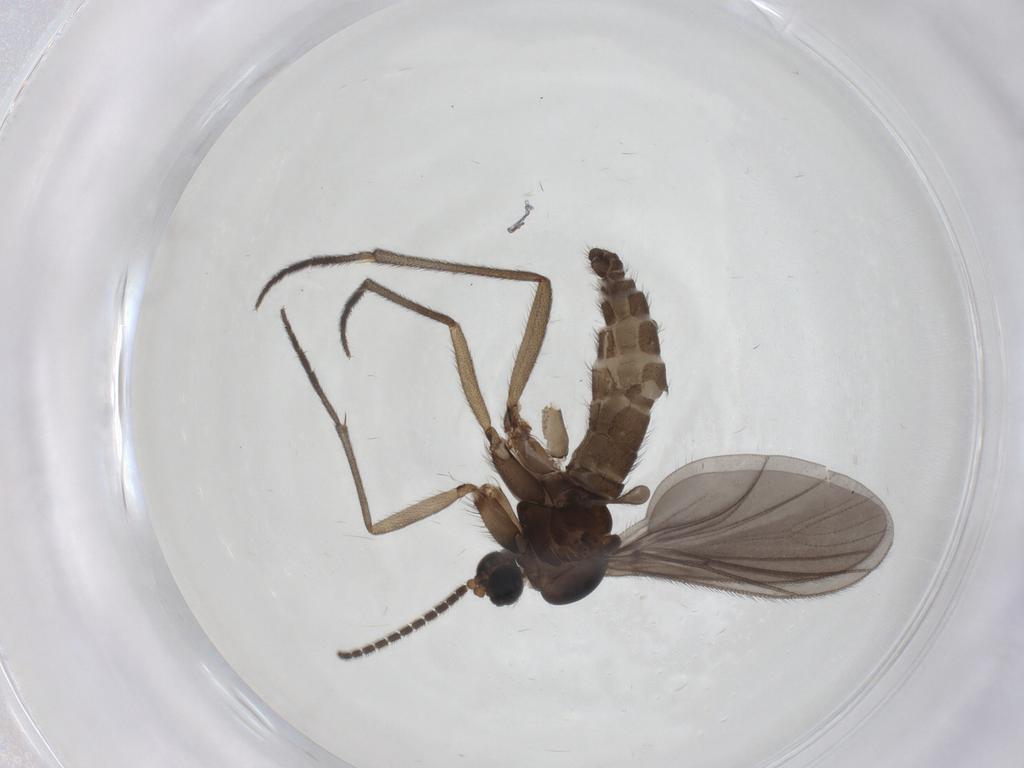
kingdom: Animalia
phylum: Arthropoda
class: Insecta
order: Diptera
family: Sciaridae
